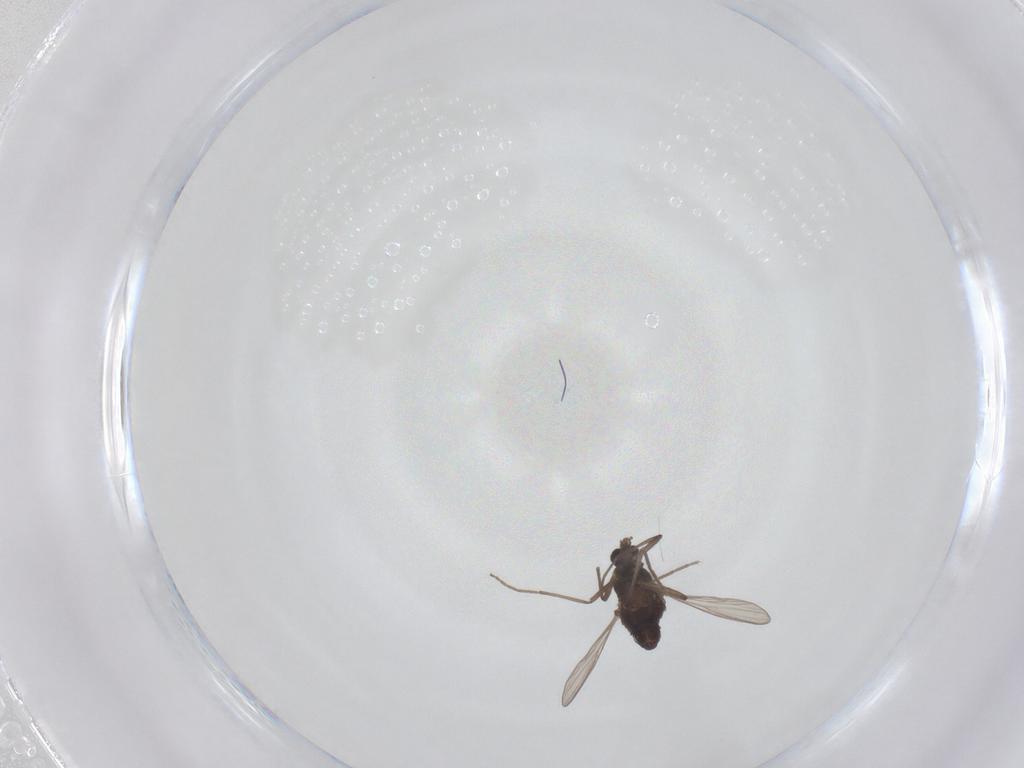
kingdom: Animalia
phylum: Arthropoda
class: Insecta
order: Diptera
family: Chironomidae
